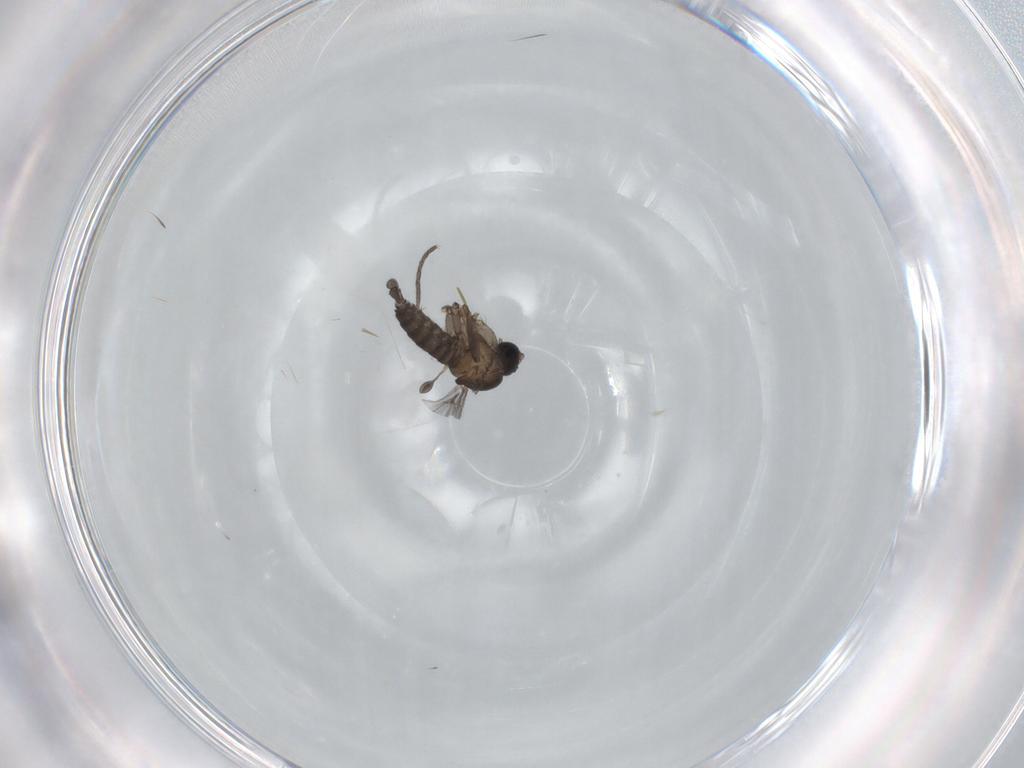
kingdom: Animalia
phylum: Arthropoda
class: Insecta
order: Diptera
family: Sciaridae
